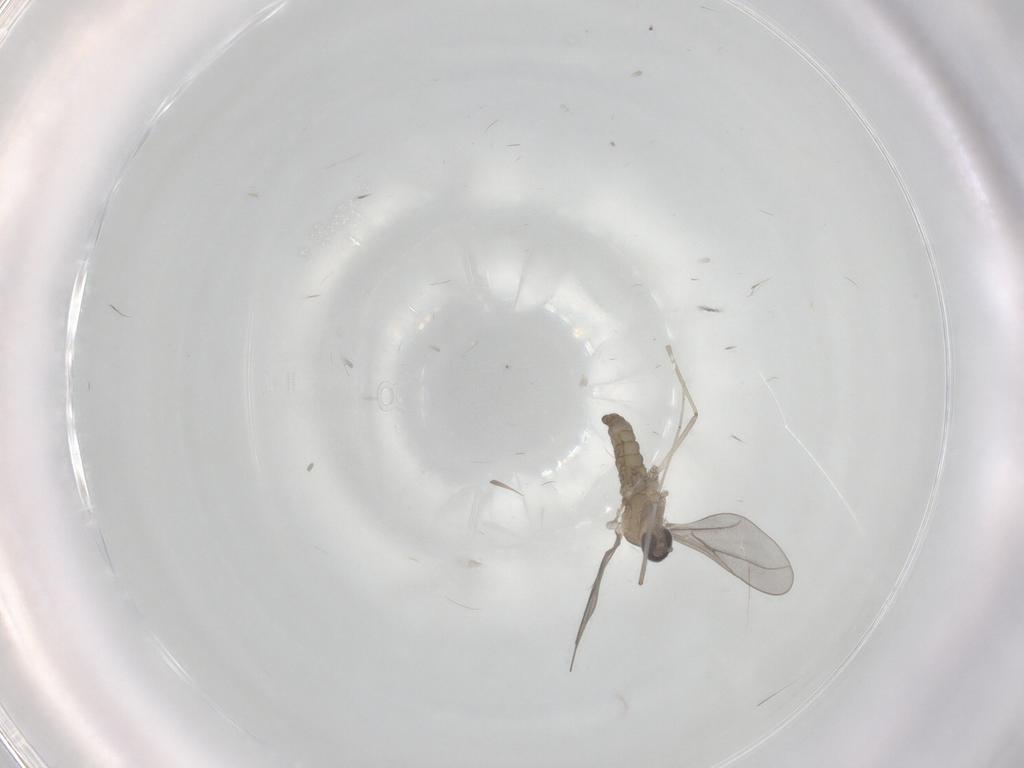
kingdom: Animalia
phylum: Arthropoda
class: Insecta
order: Diptera
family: Cecidomyiidae
